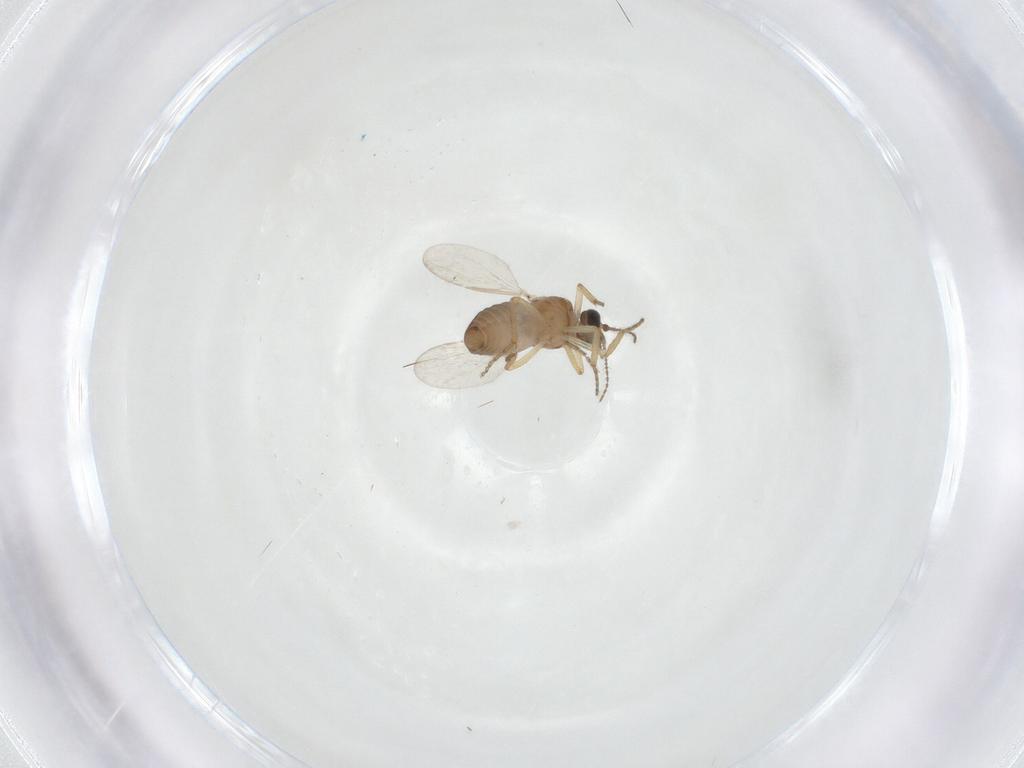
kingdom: Animalia
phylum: Arthropoda
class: Insecta
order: Diptera
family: Ceratopogonidae
